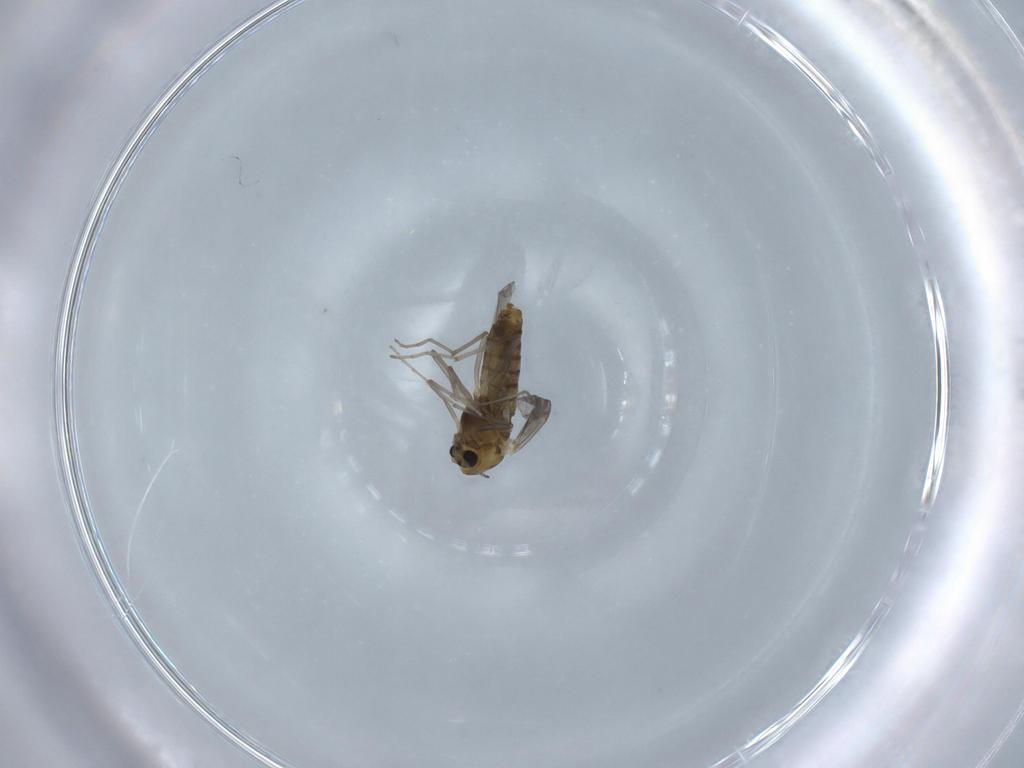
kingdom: Animalia
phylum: Arthropoda
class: Insecta
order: Diptera
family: Chironomidae
